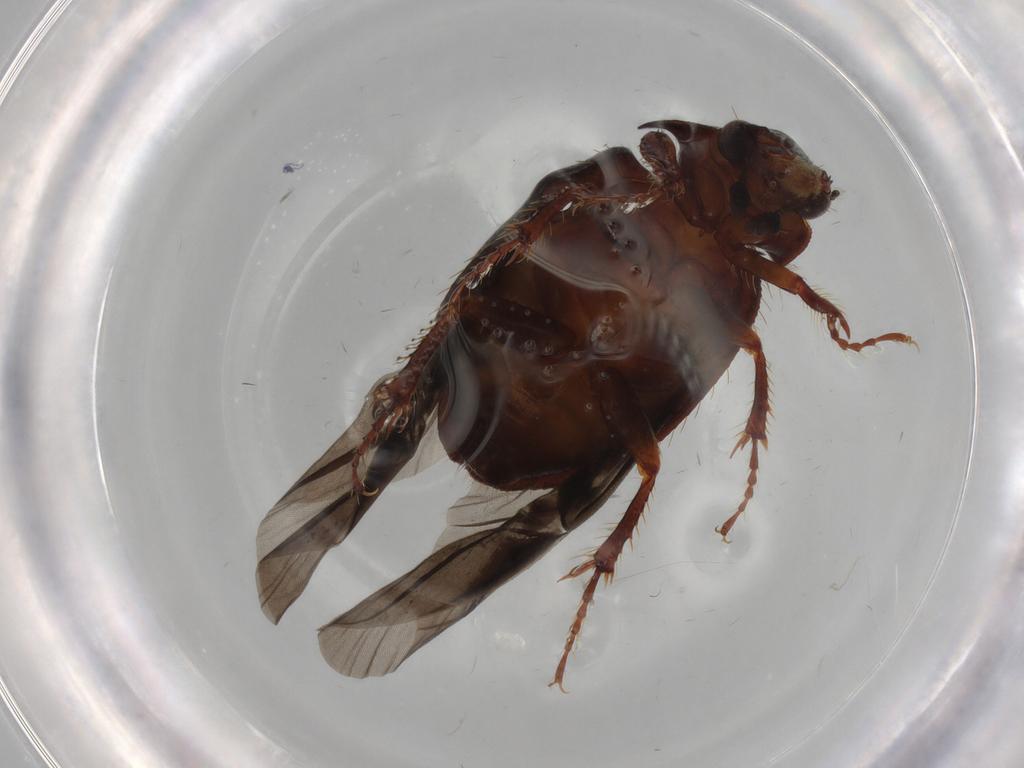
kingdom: Animalia
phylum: Arthropoda
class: Insecta
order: Coleoptera
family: Hybosoridae
